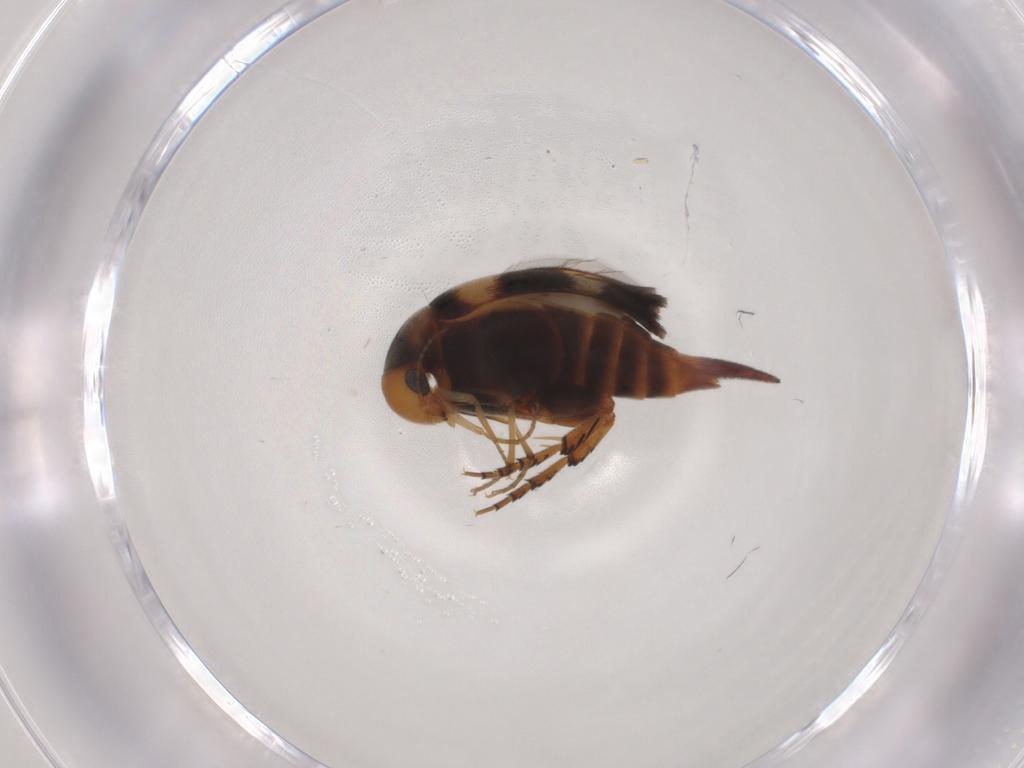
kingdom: Animalia
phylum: Arthropoda
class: Insecta
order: Coleoptera
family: Mordellidae
